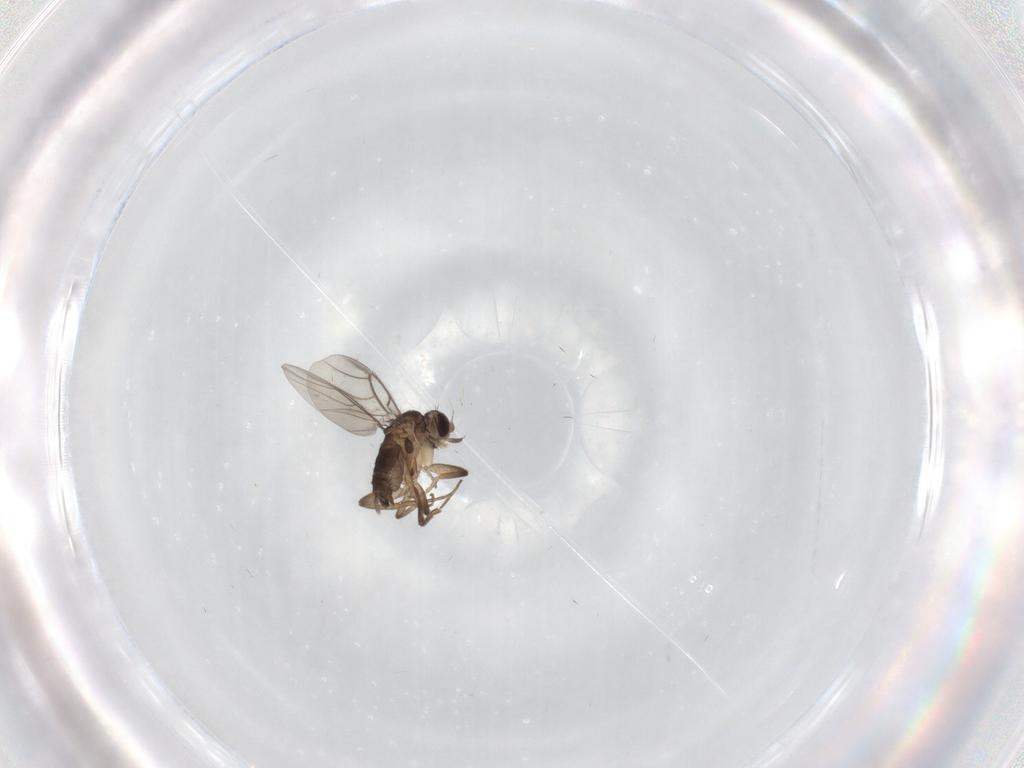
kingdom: Animalia
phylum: Arthropoda
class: Insecta
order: Diptera
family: Phoridae
